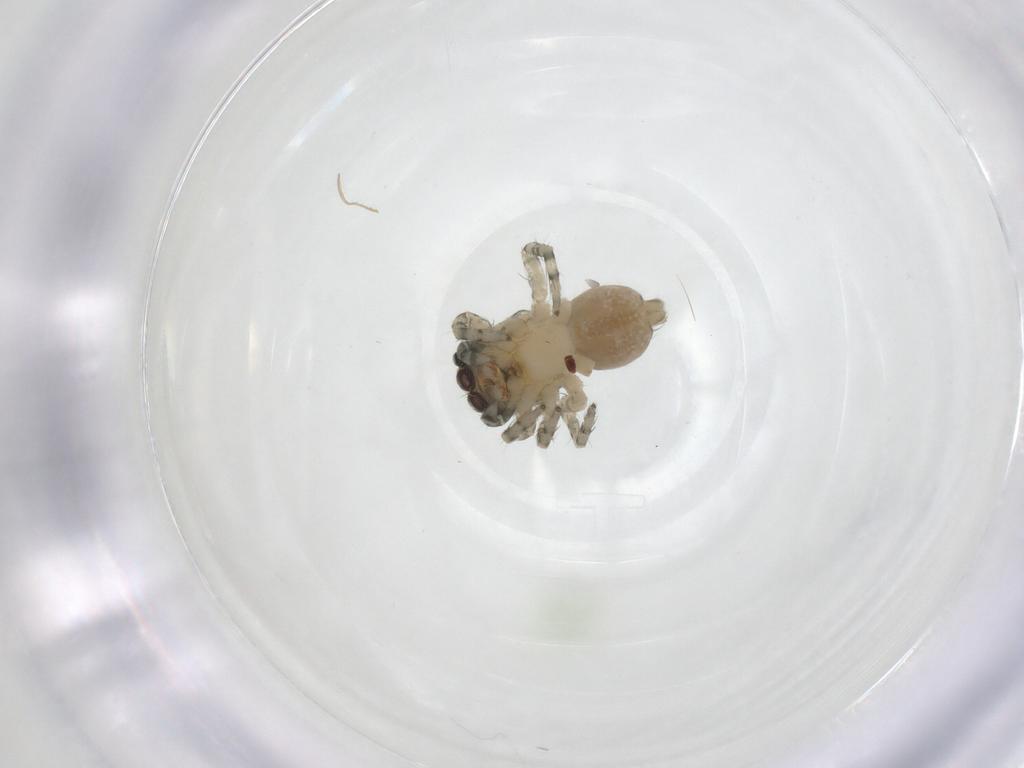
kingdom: Animalia
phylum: Arthropoda
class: Arachnida
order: Araneae
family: Salticidae
